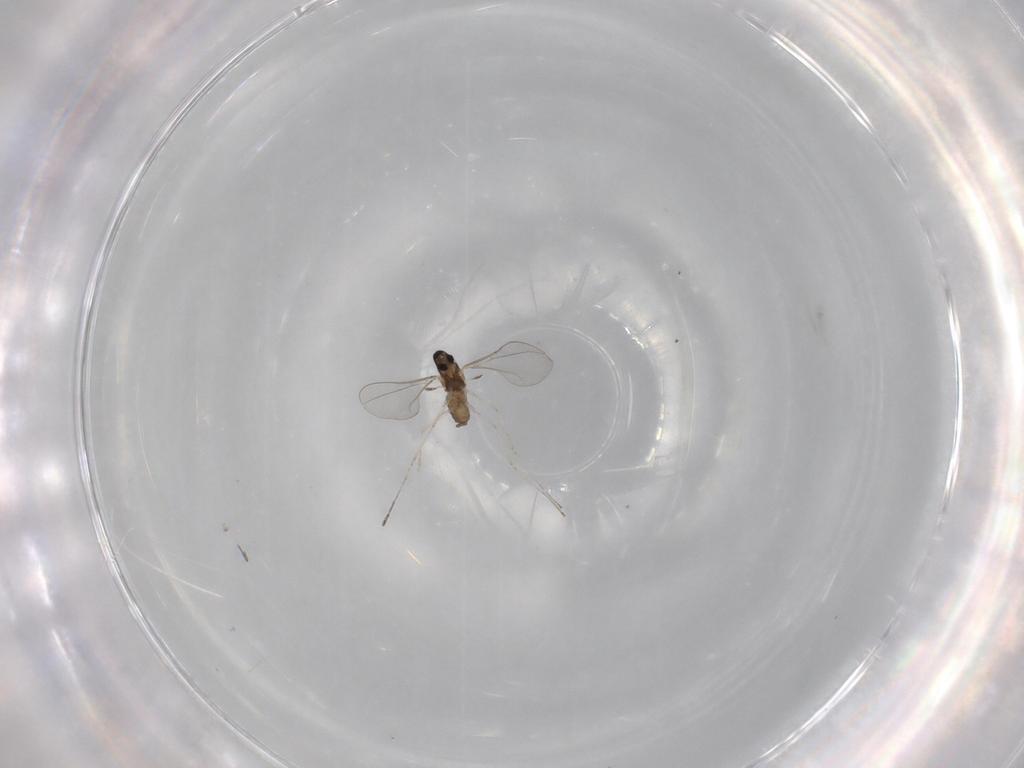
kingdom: Animalia
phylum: Arthropoda
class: Insecta
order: Diptera
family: Cecidomyiidae
